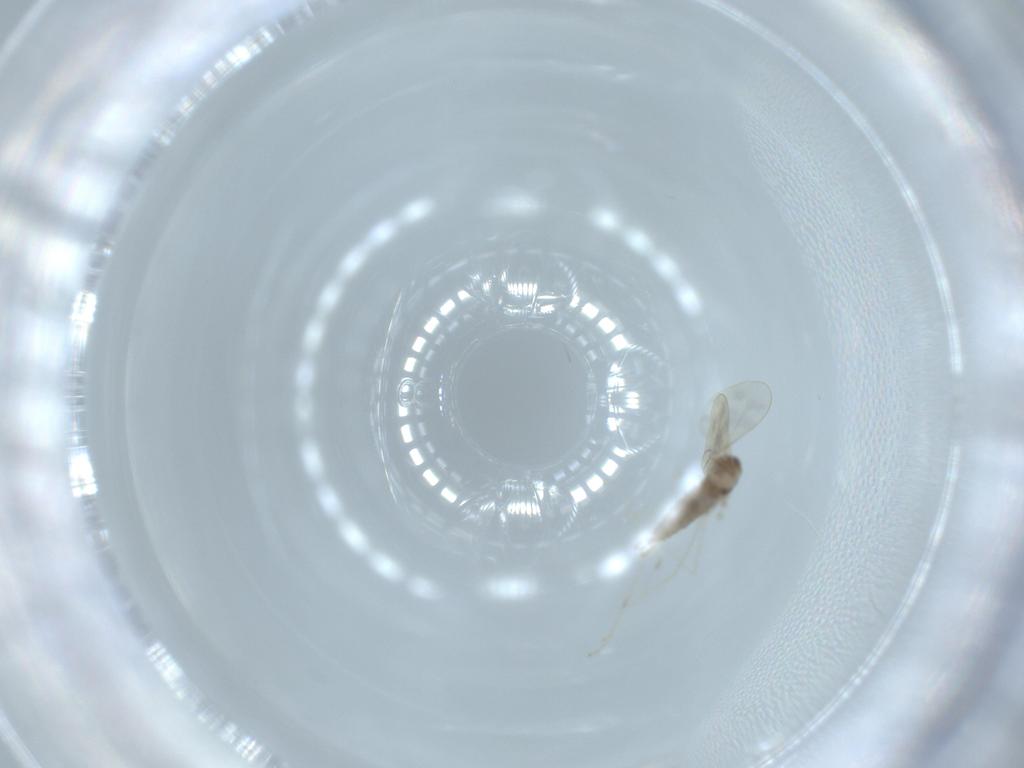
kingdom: Animalia
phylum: Arthropoda
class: Insecta
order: Diptera
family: Cecidomyiidae
